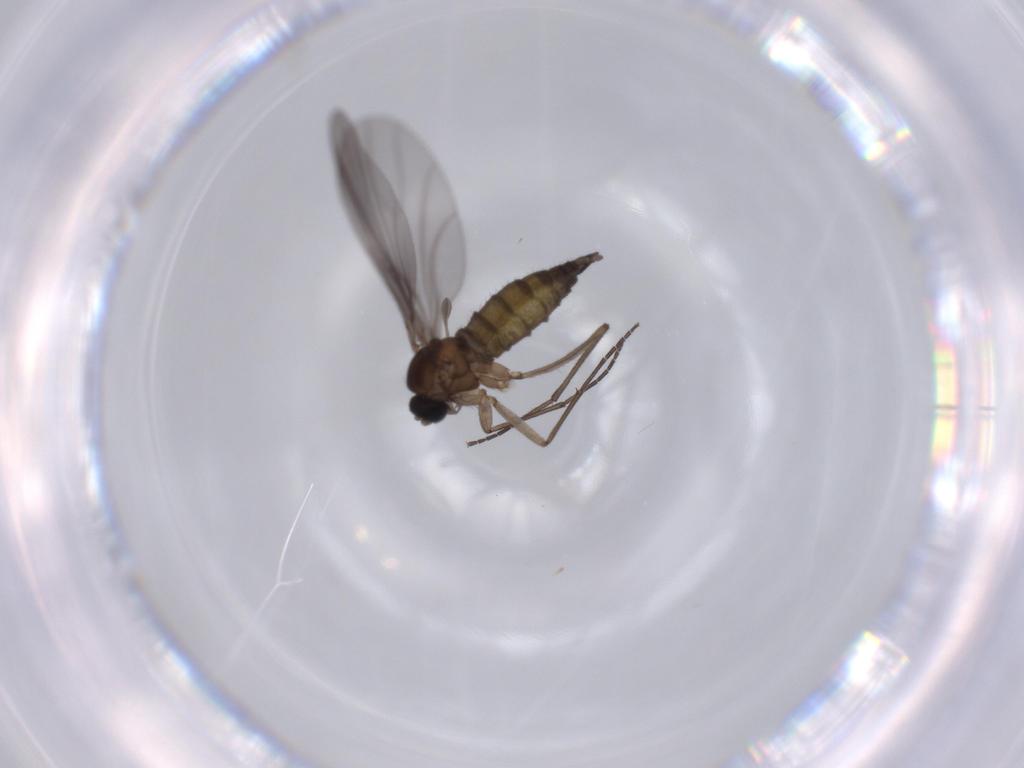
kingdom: Animalia
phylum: Arthropoda
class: Insecta
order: Diptera
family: Sciaridae
